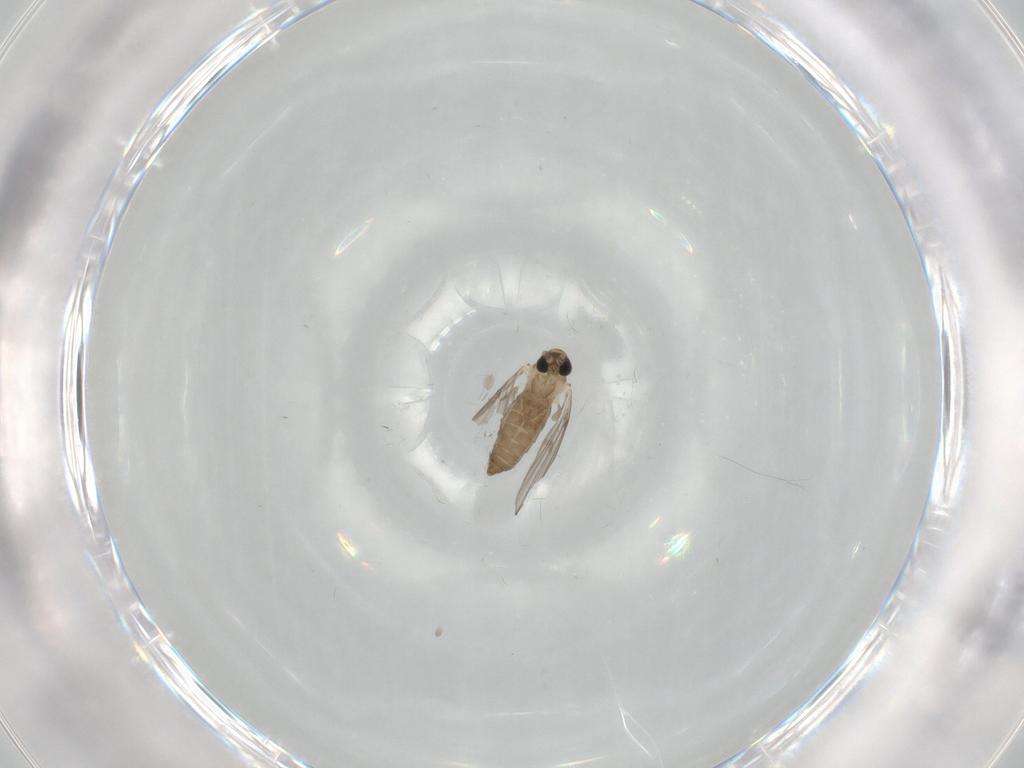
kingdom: Animalia
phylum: Arthropoda
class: Insecta
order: Diptera
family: Psychodidae
